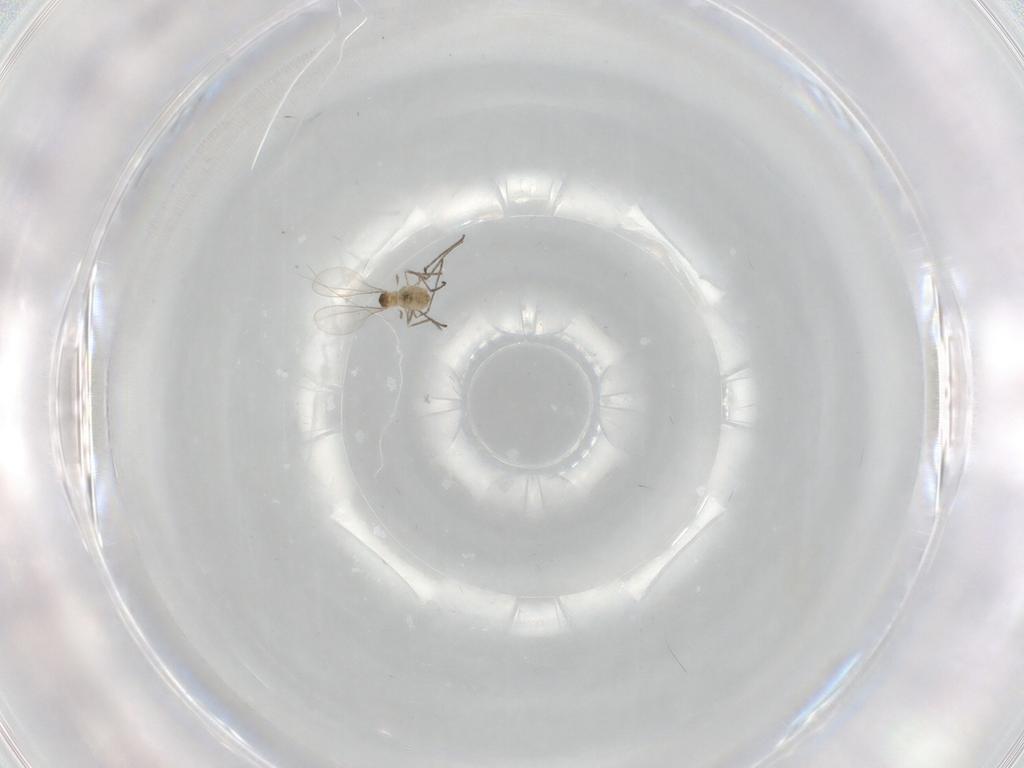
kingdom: Animalia
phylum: Arthropoda
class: Insecta
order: Diptera
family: Cecidomyiidae
